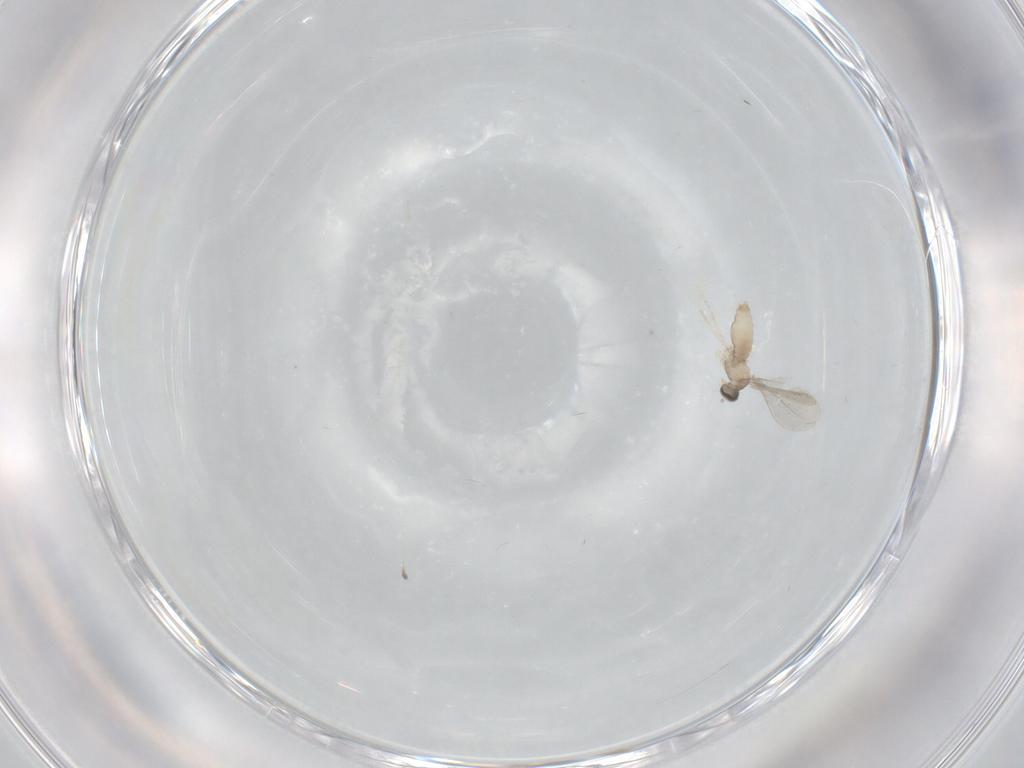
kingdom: Animalia
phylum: Arthropoda
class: Insecta
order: Diptera
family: Cecidomyiidae
